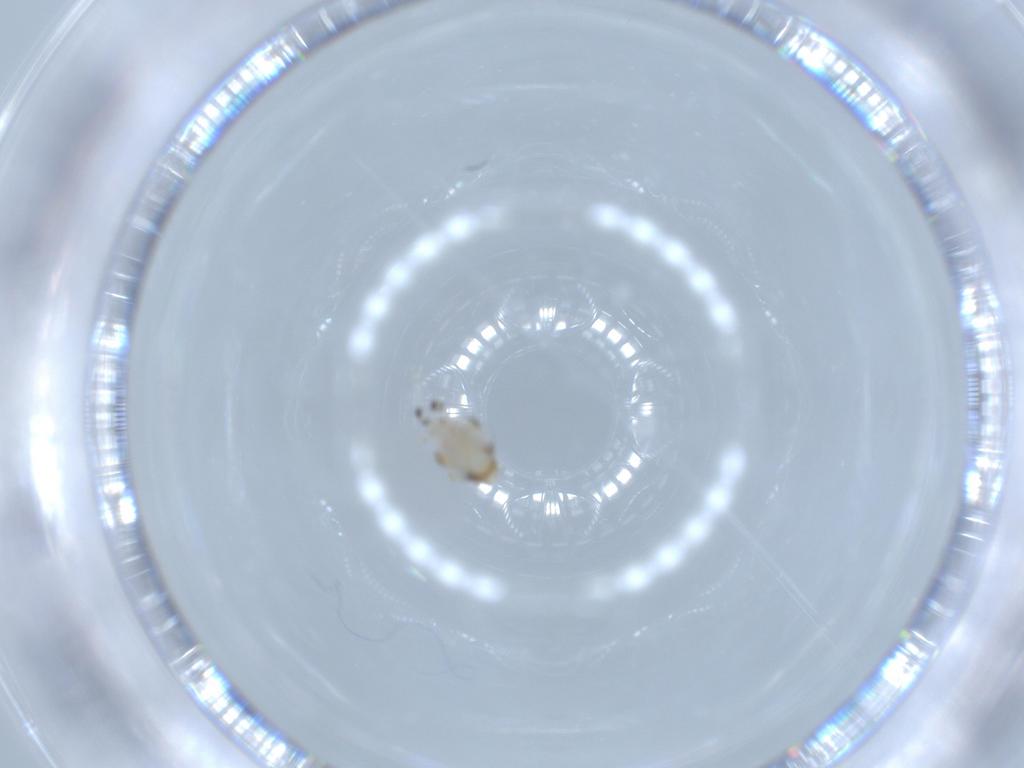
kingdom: Animalia
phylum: Arthropoda
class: Insecta
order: Hemiptera
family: Nogodinidae
